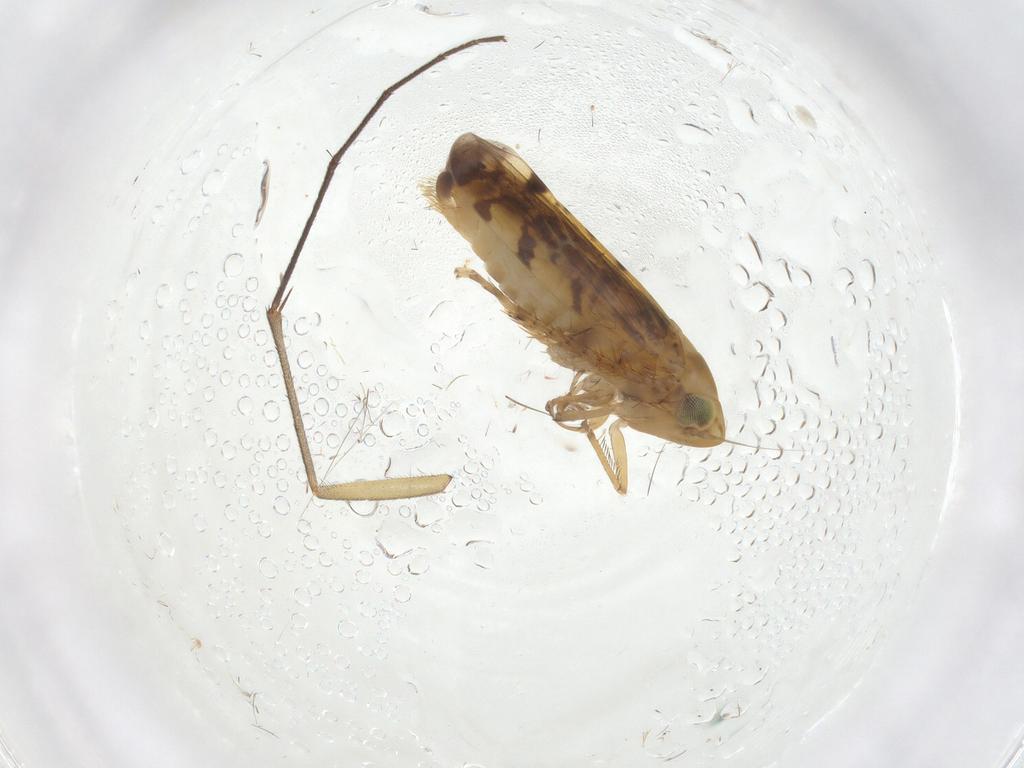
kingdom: Animalia
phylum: Arthropoda
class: Insecta
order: Hemiptera
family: Cicadellidae
